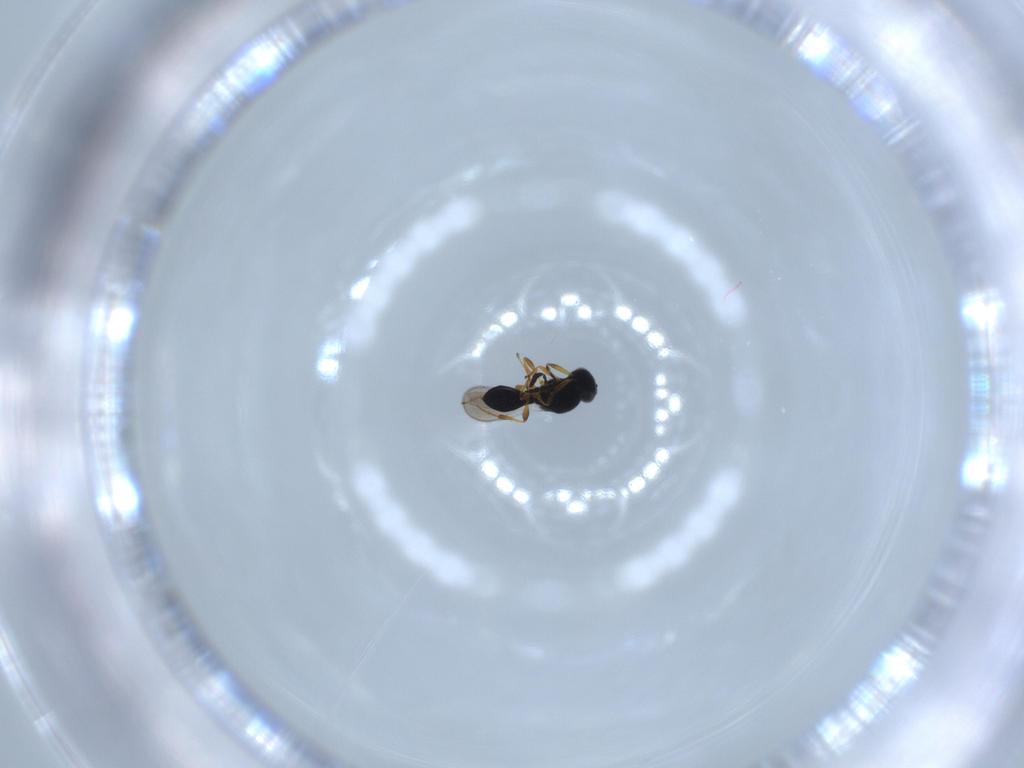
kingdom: Animalia
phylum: Arthropoda
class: Insecta
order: Hymenoptera
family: Platygastridae
